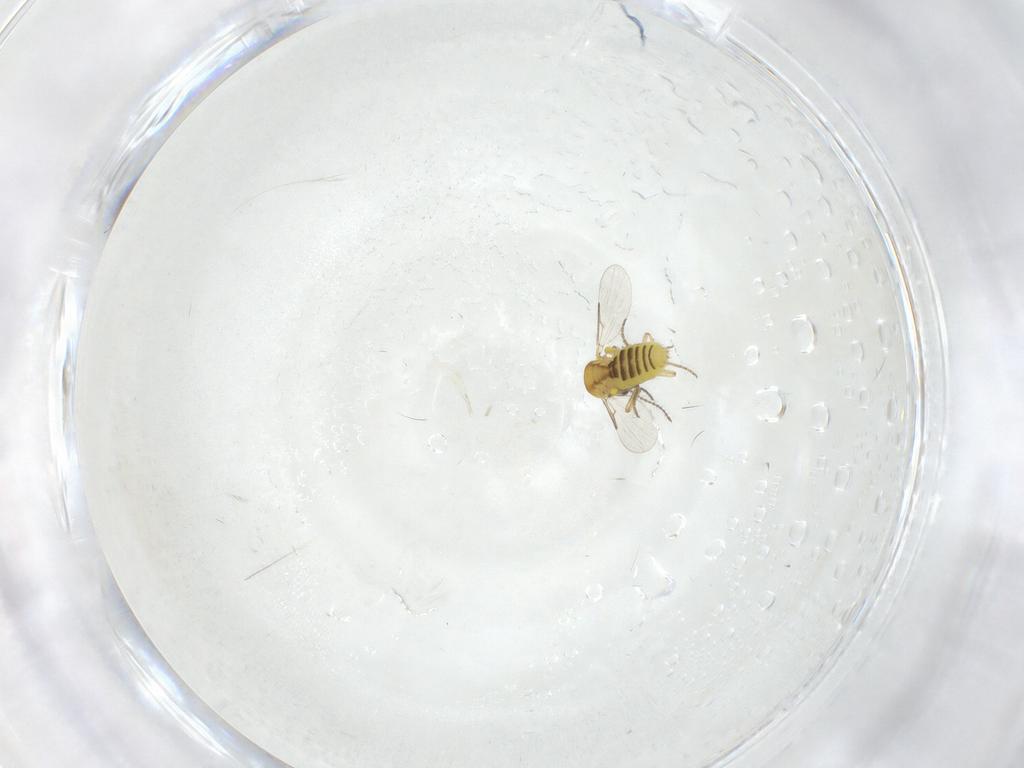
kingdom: Animalia
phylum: Arthropoda
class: Insecta
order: Diptera
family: Ceratopogonidae
